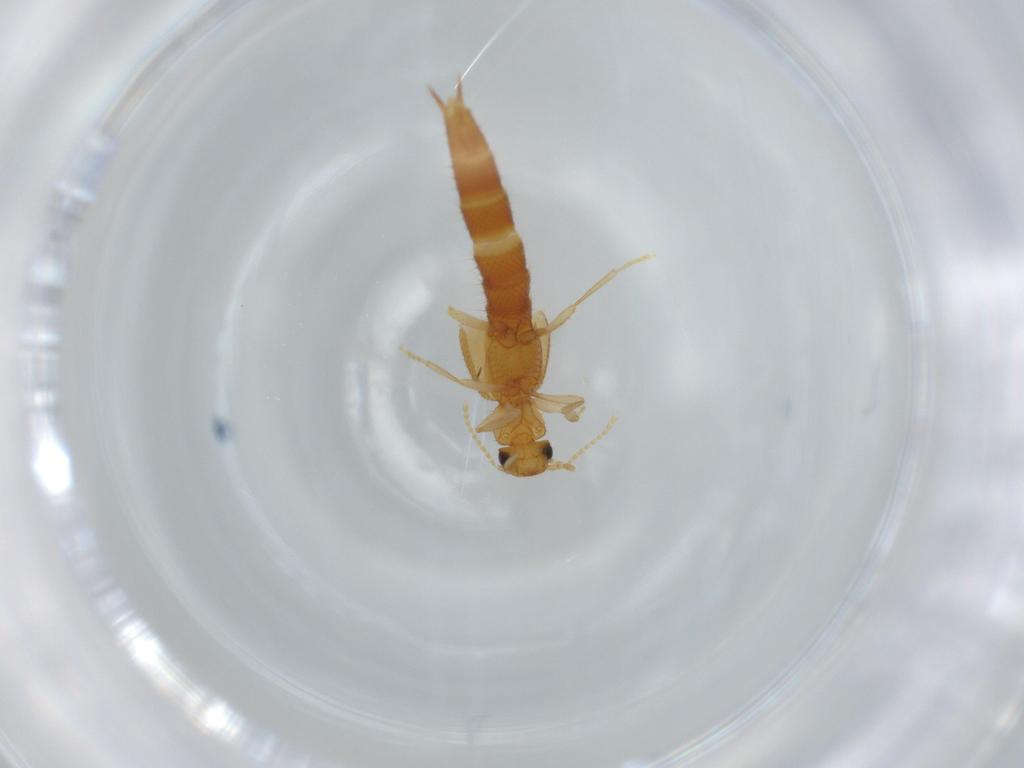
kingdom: Animalia
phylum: Arthropoda
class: Insecta
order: Coleoptera
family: Staphylinidae
